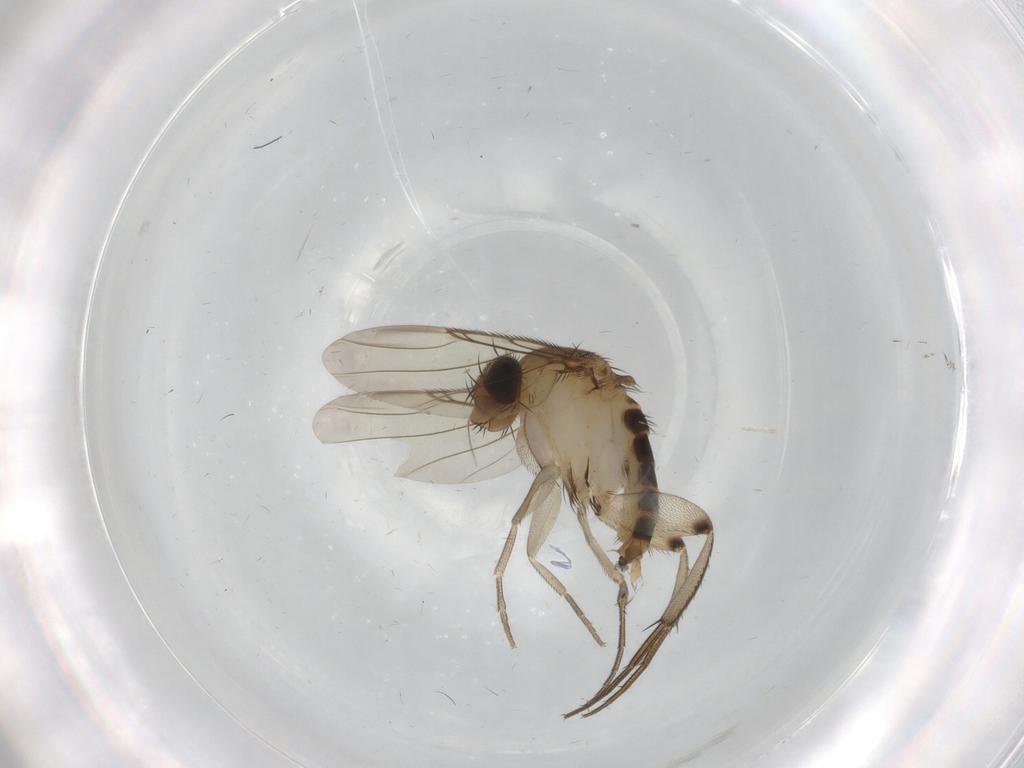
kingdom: Animalia
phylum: Arthropoda
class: Insecta
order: Diptera
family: Phoridae
